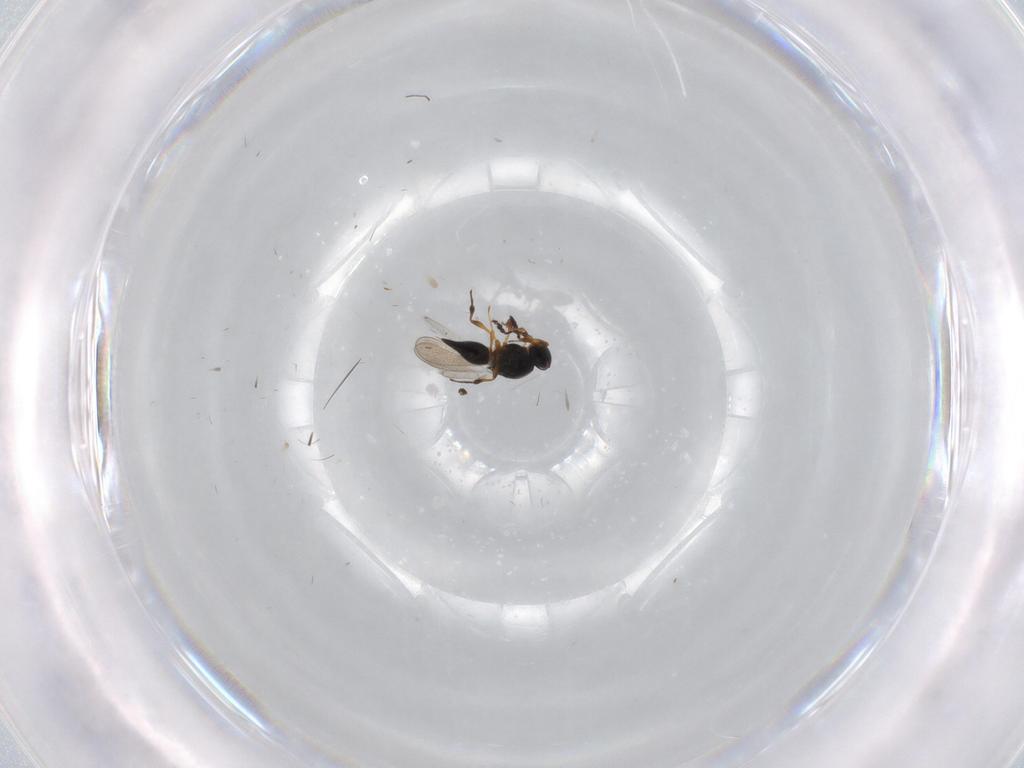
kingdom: Animalia
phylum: Arthropoda
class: Insecta
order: Hymenoptera
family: Platygastridae
